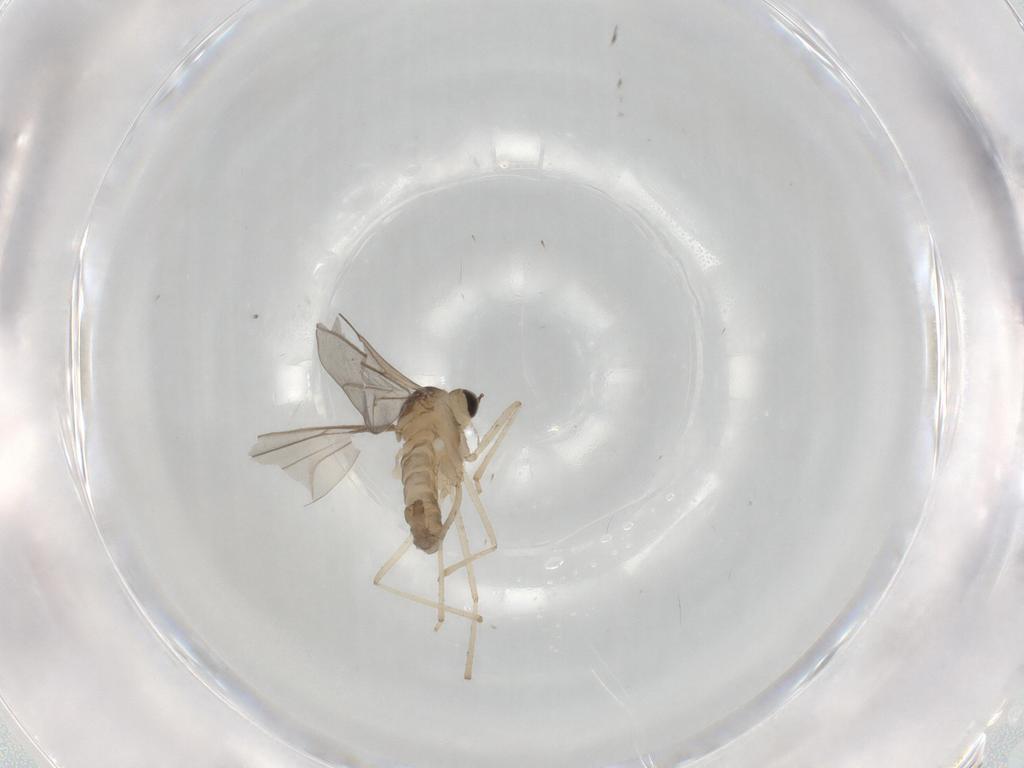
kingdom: Animalia
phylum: Arthropoda
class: Insecta
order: Diptera
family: Cecidomyiidae
